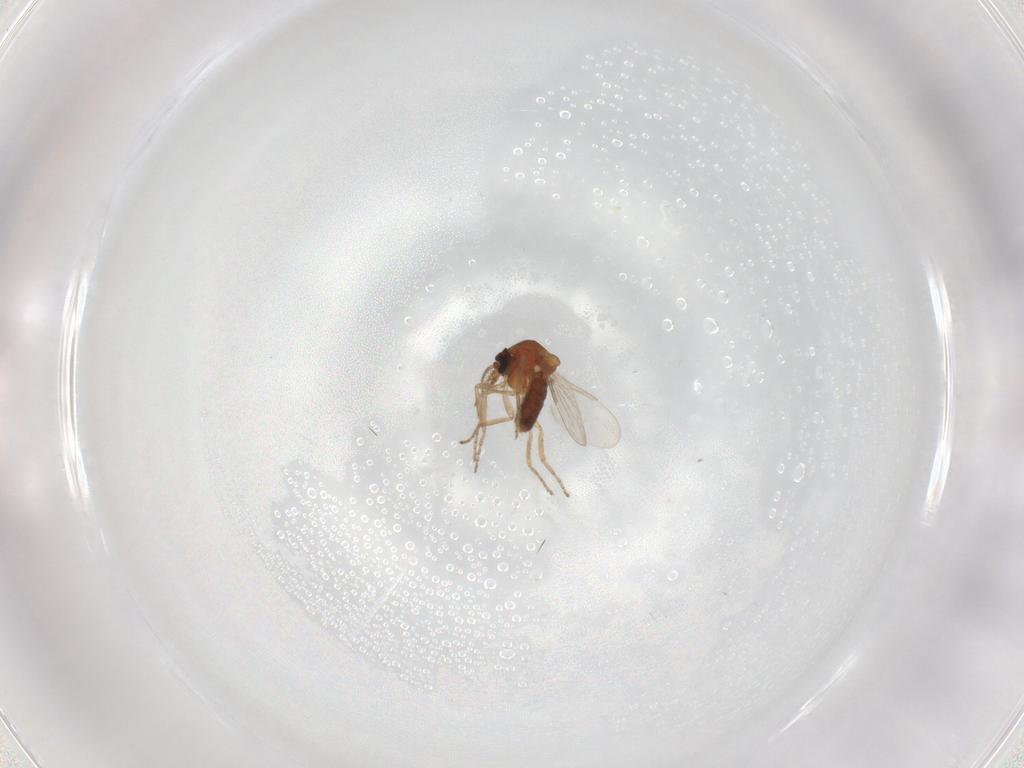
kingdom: Animalia
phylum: Arthropoda
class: Insecta
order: Diptera
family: Ceratopogonidae
